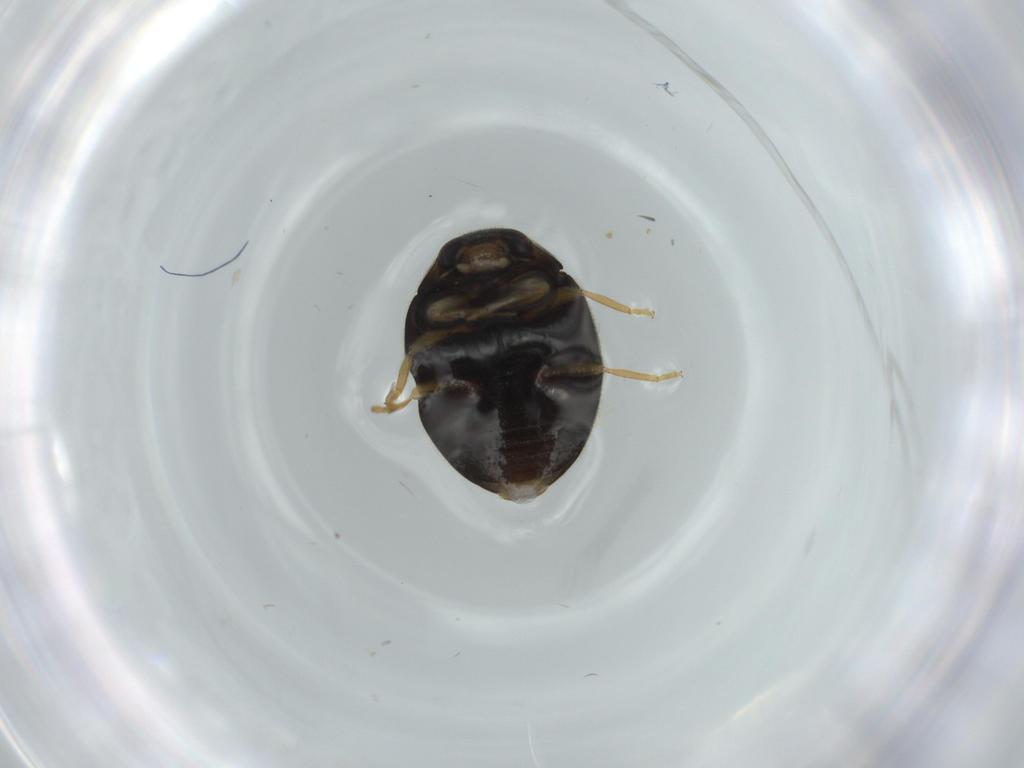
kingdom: Animalia
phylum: Arthropoda
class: Insecta
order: Coleoptera
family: Coccinellidae
